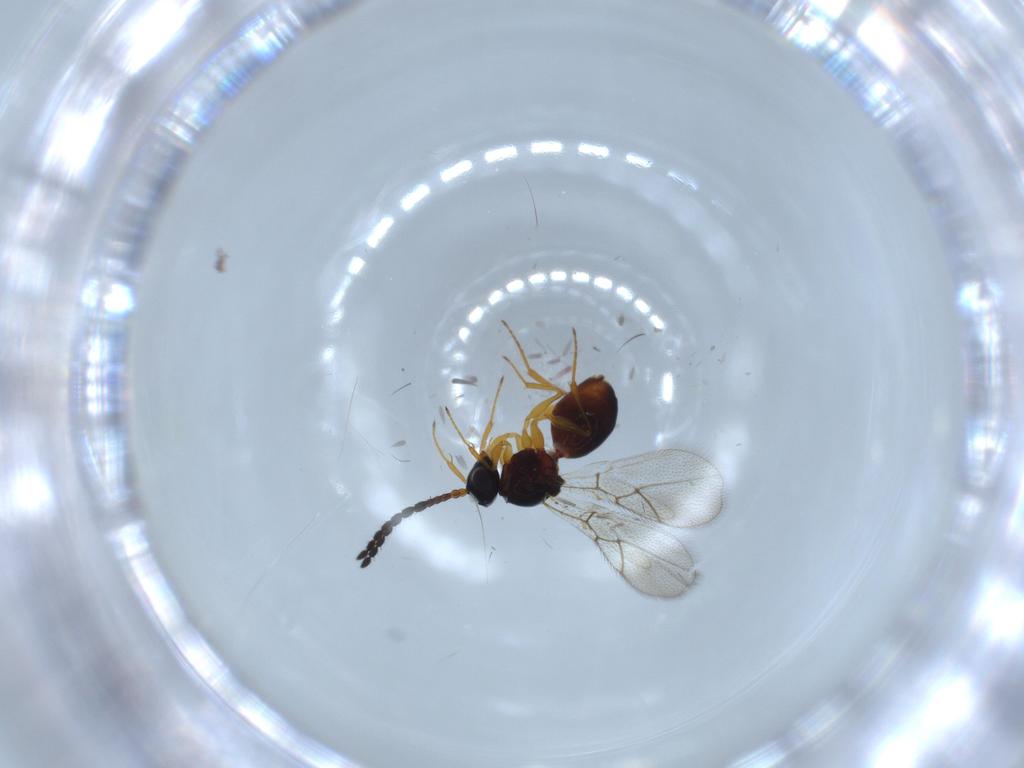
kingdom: Animalia
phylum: Arthropoda
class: Insecta
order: Hymenoptera
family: Figitidae
